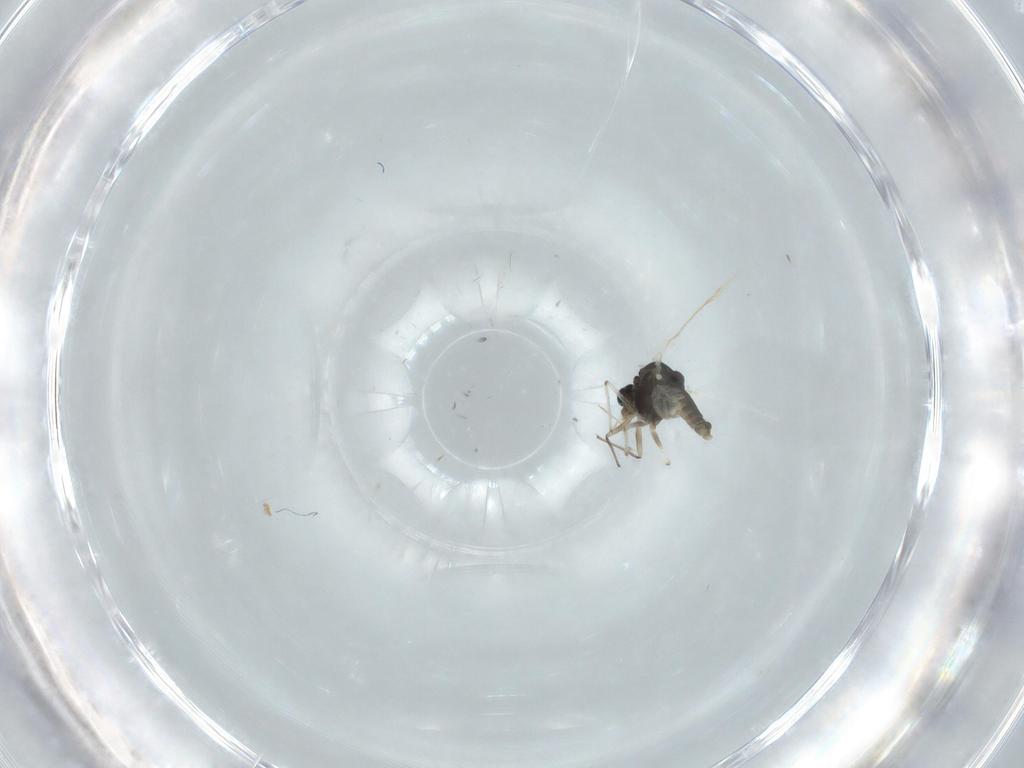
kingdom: Animalia
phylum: Arthropoda
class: Insecta
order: Diptera
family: Chironomidae
